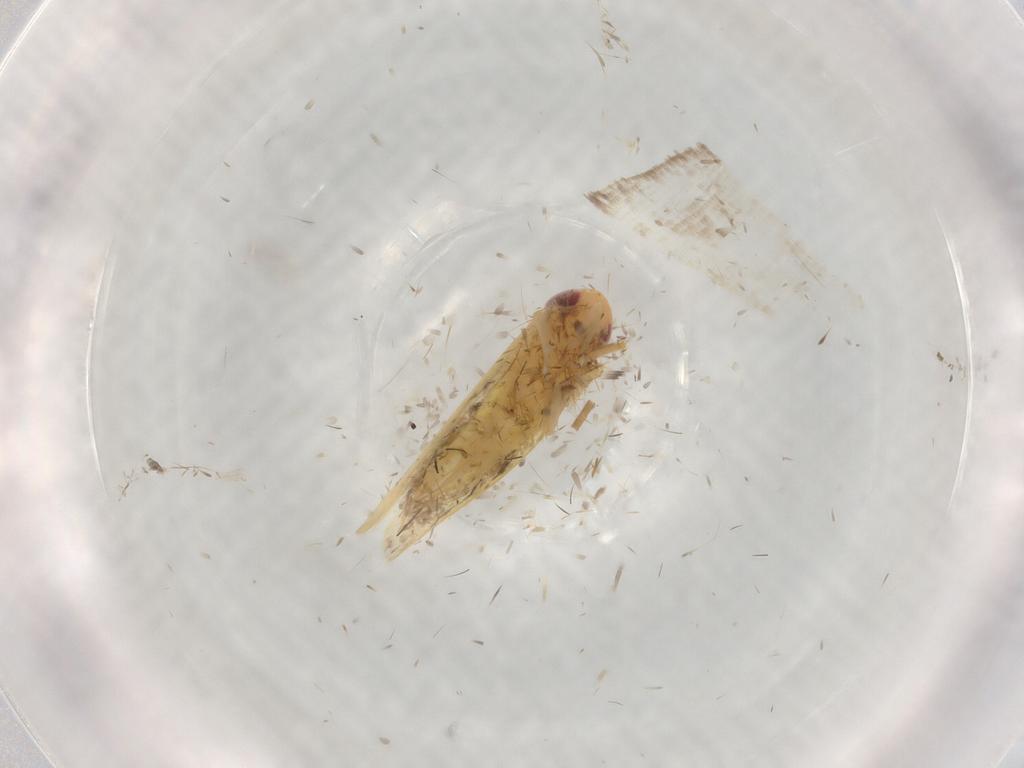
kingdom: Animalia
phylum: Arthropoda
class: Insecta
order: Hemiptera
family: Cicadellidae
